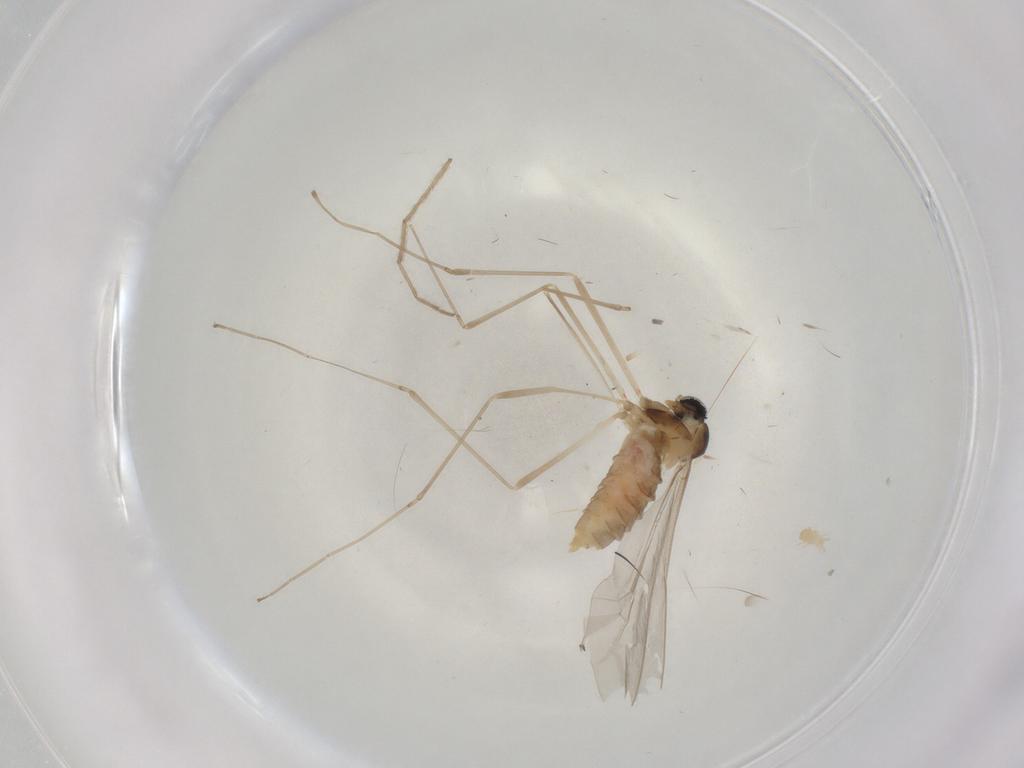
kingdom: Animalia
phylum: Arthropoda
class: Insecta
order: Diptera
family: Cecidomyiidae
